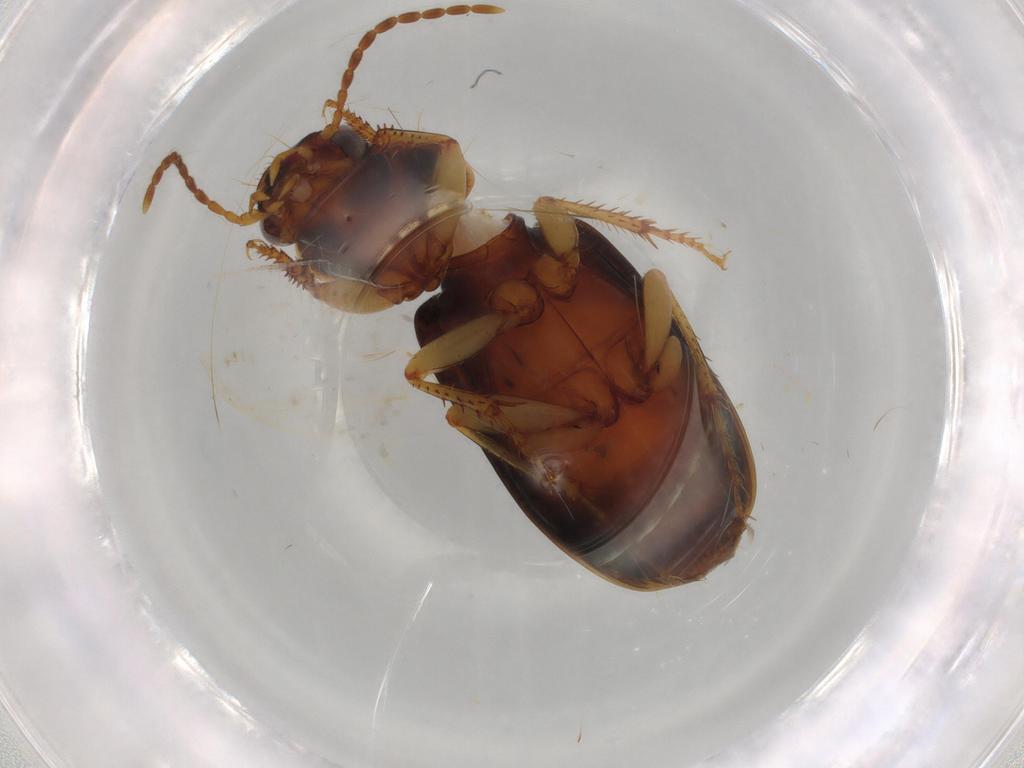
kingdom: Animalia
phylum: Arthropoda
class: Insecta
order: Coleoptera
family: Carabidae
